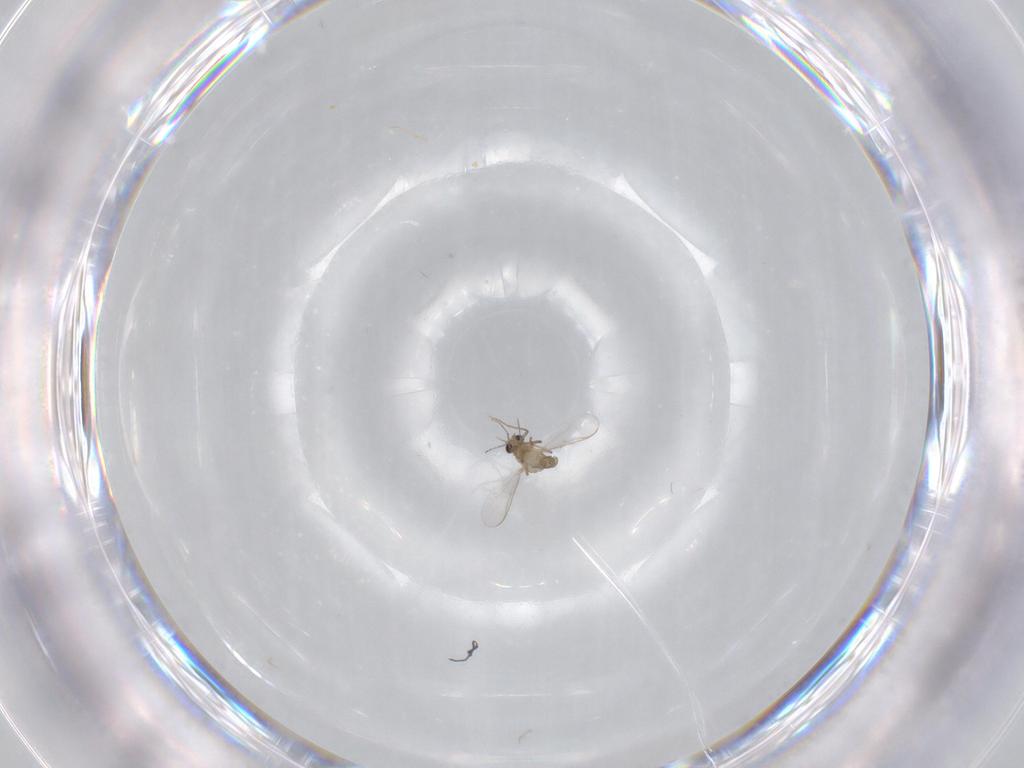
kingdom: Animalia
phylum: Arthropoda
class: Insecta
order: Diptera
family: Chironomidae
